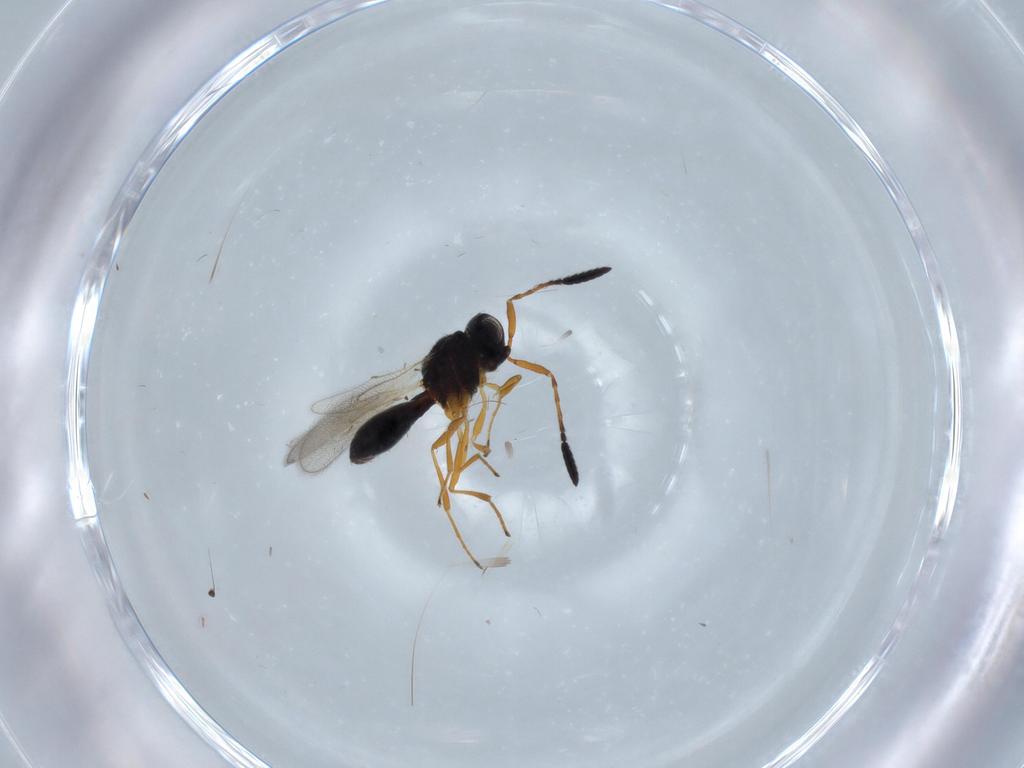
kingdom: Animalia
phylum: Arthropoda
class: Insecta
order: Hymenoptera
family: Scelionidae
